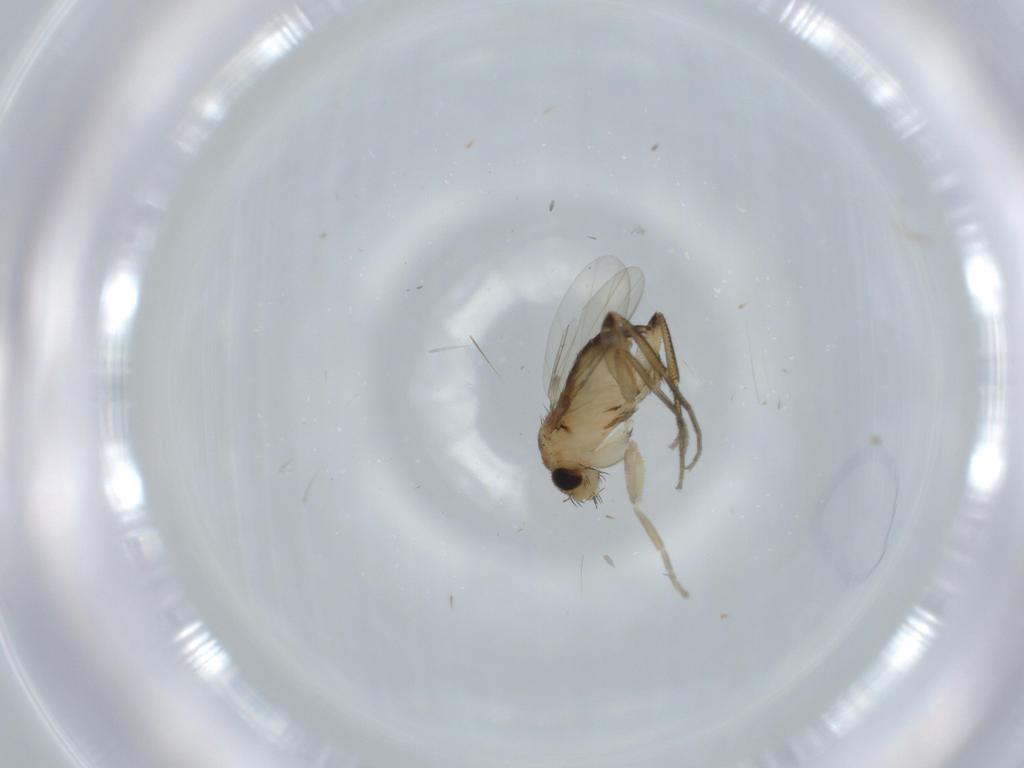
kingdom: Animalia
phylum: Arthropoda
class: Insecta
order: Diptera
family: Phoridae
